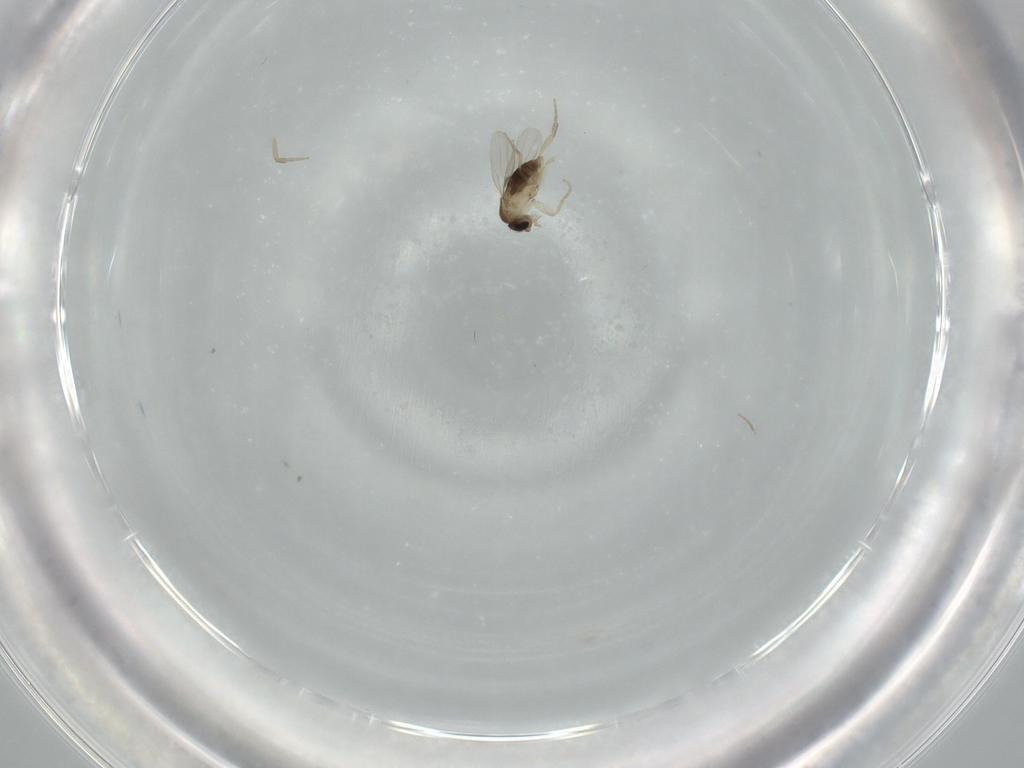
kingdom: Animalia
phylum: Arthropoda
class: Insecta
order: Diptera
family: Phoridae
